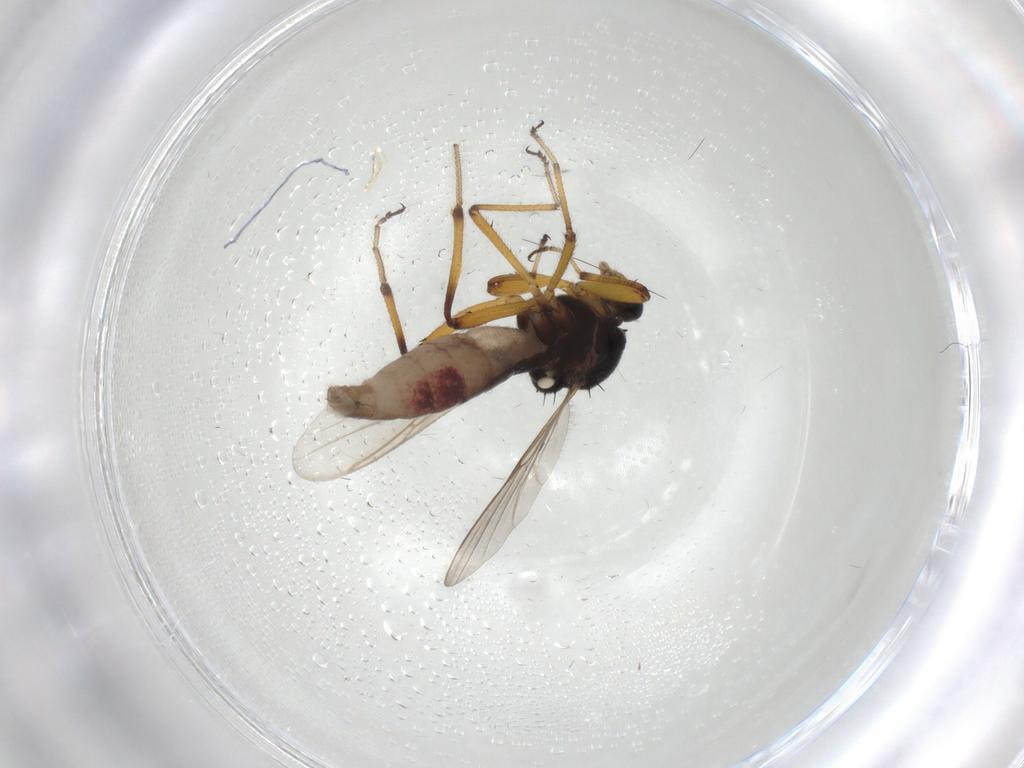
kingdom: Animalia
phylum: Arthropoda
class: Insecta
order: Diptera
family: Ceratopogonidae
